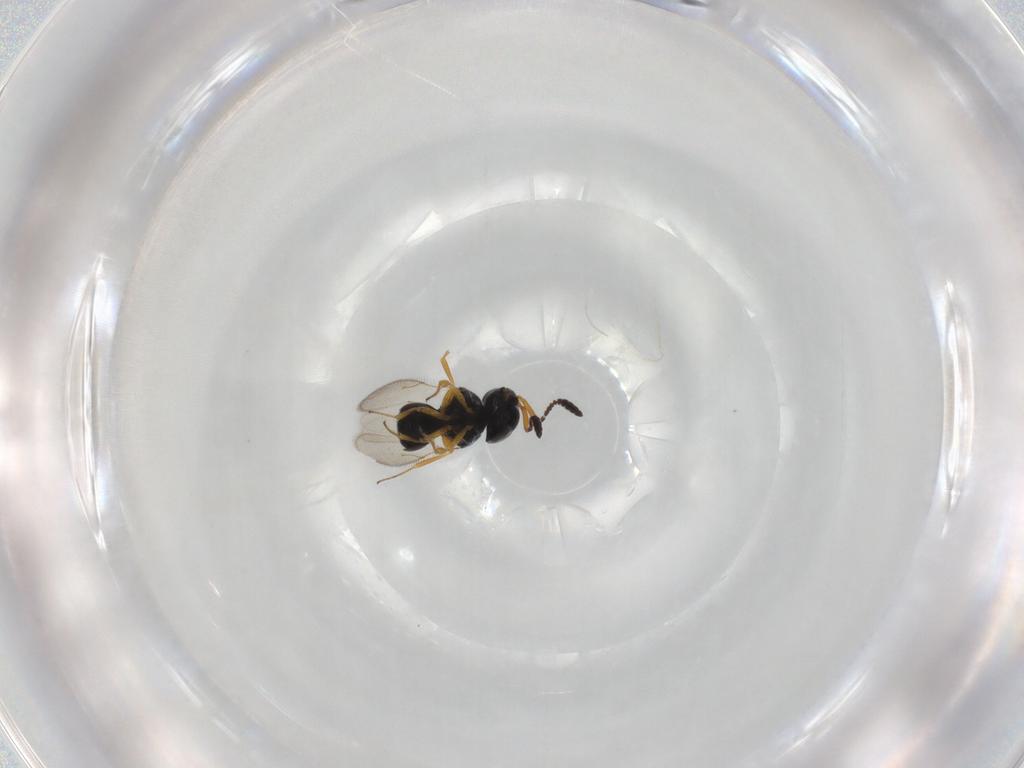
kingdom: Animalia
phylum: Arthropoda
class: Insecta
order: Hymenoptera
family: Scelionidae
